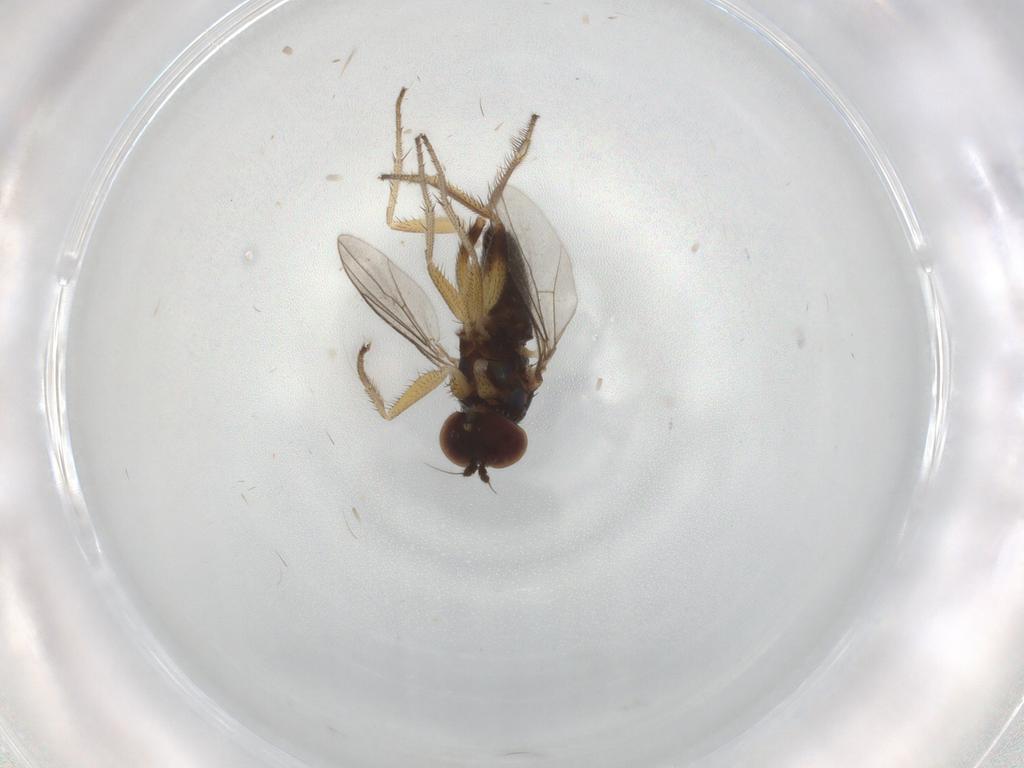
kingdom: Animalia
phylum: Arthropoda
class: Insecta
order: Diptera
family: Dolichopodidae
